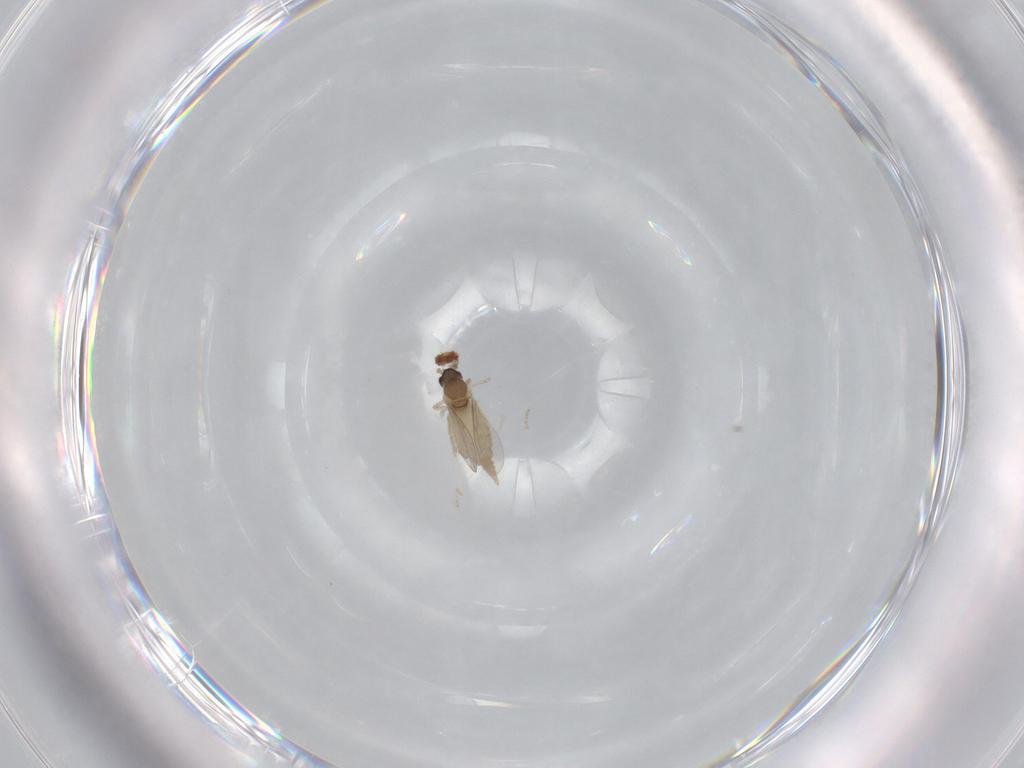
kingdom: Animalia
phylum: Arthropoda
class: Insecta
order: Diptera
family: Cecidomyiidae
